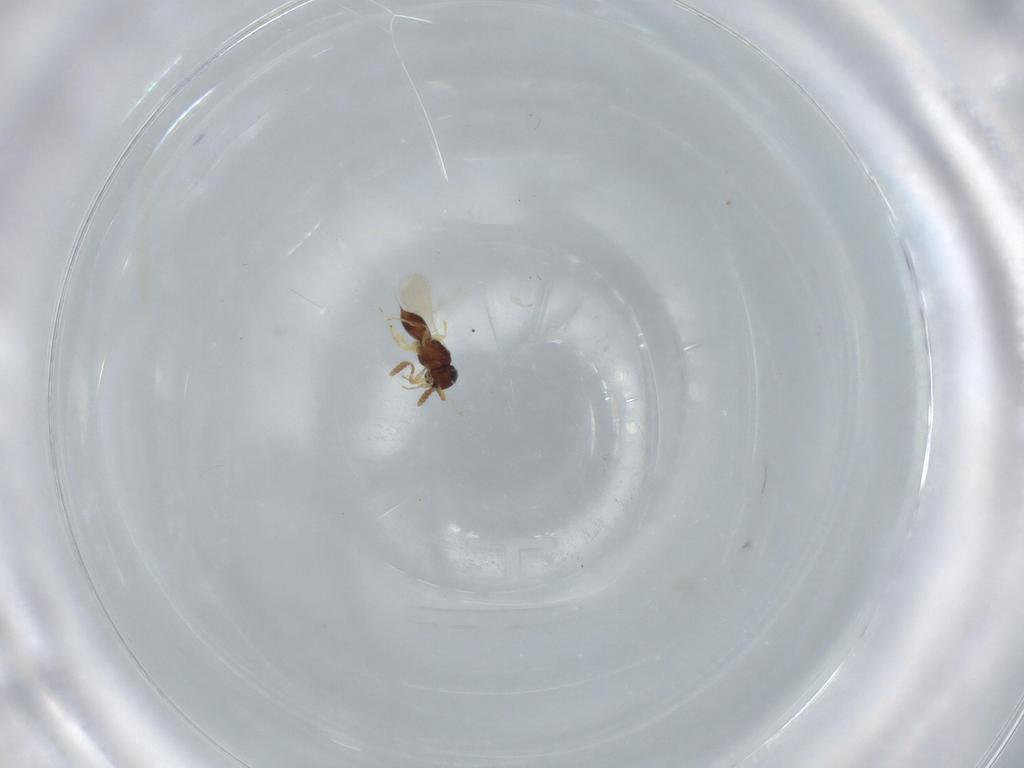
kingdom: Animalia
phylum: Arthropoda
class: Insecta
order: Hymenoptera
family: Scelionidae
